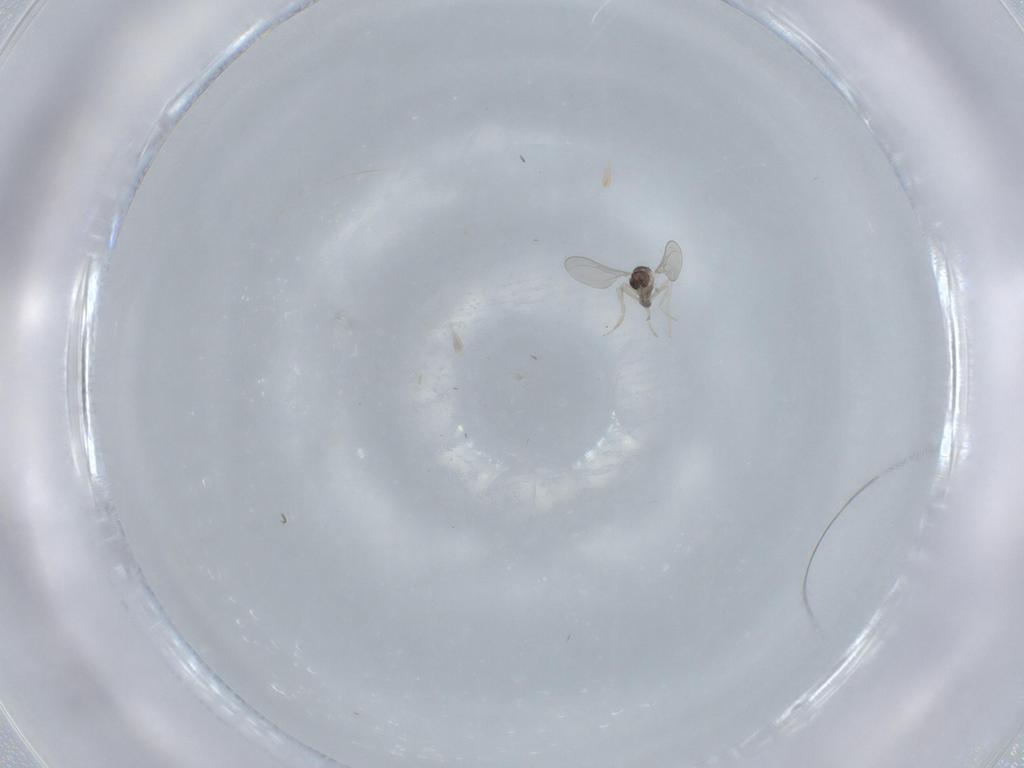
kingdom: Animalia
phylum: Arthropoda
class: Insecta
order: Diptera
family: Cecidomyiidae
